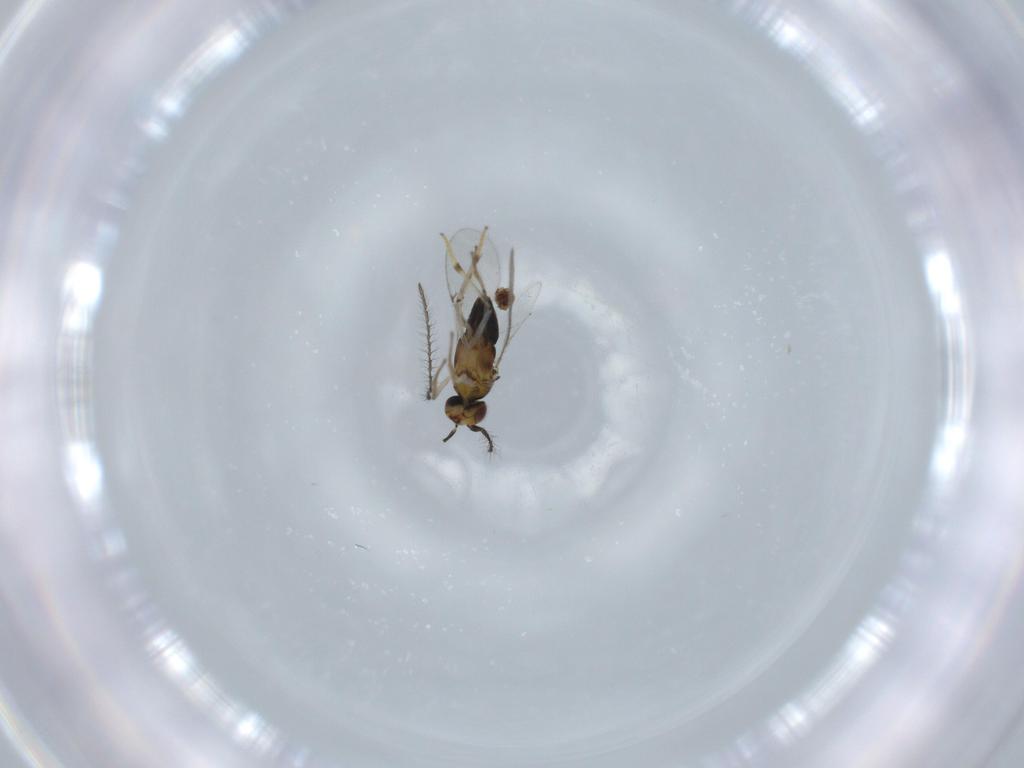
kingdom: Animalia
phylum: Arthropoda
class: Insecta
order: Hymenoptera
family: Encyrtidae
